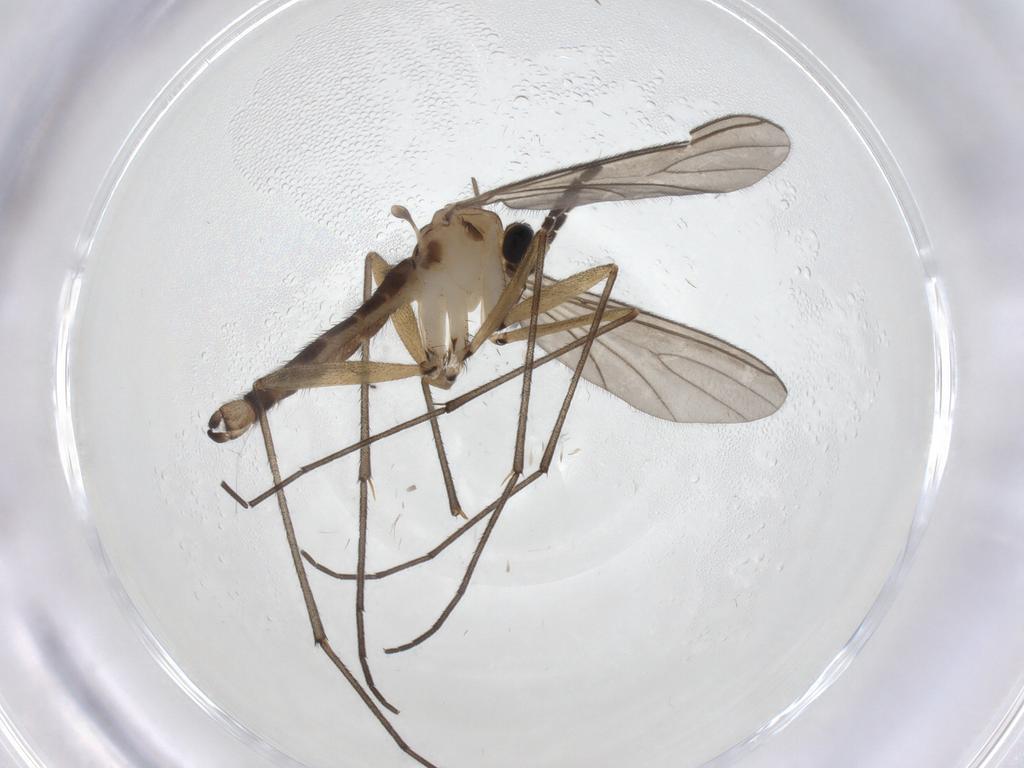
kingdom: Animalia
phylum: Arthropoda
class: Insecta
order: Diptera
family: Sciaridae
